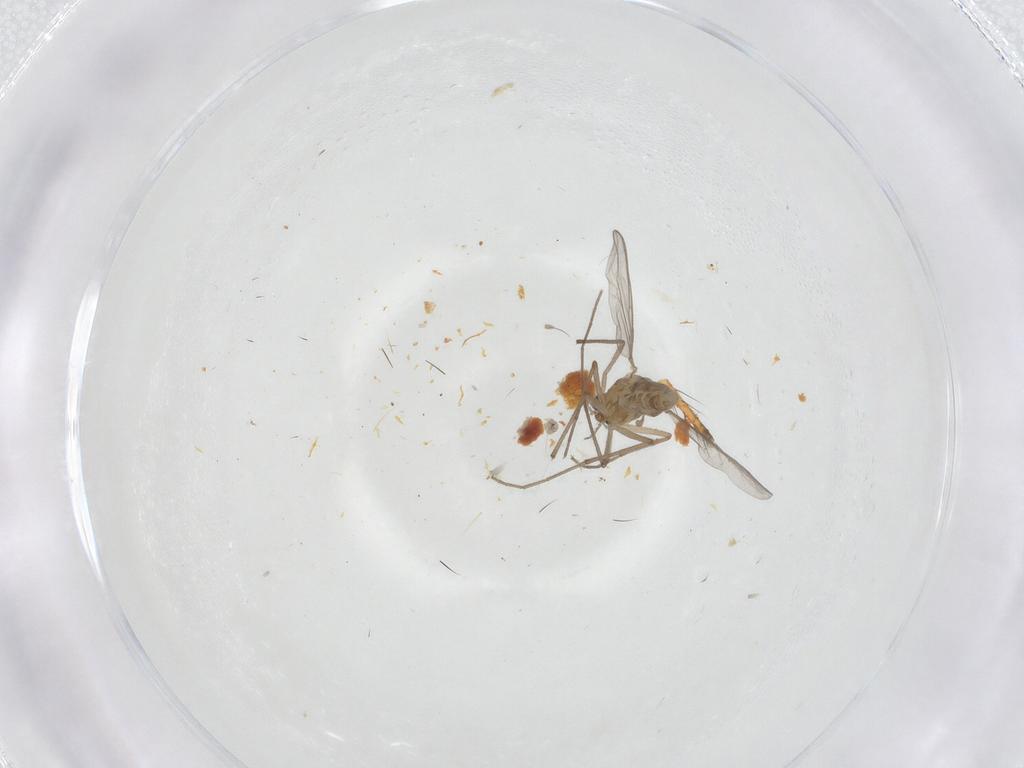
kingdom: Animalia
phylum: Arthropoda
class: Insecta
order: Diptera
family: Chironomidae
